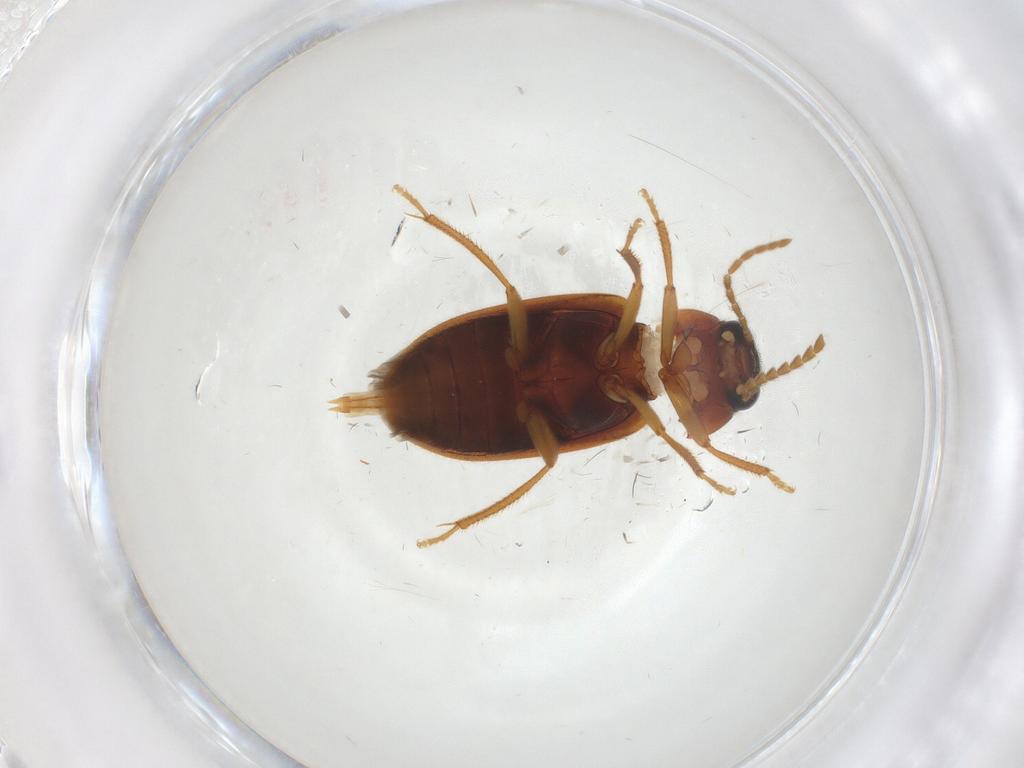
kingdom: Animalia
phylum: Arthropoda
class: Insecta
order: Coleoptera
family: Ptilodactylidae
